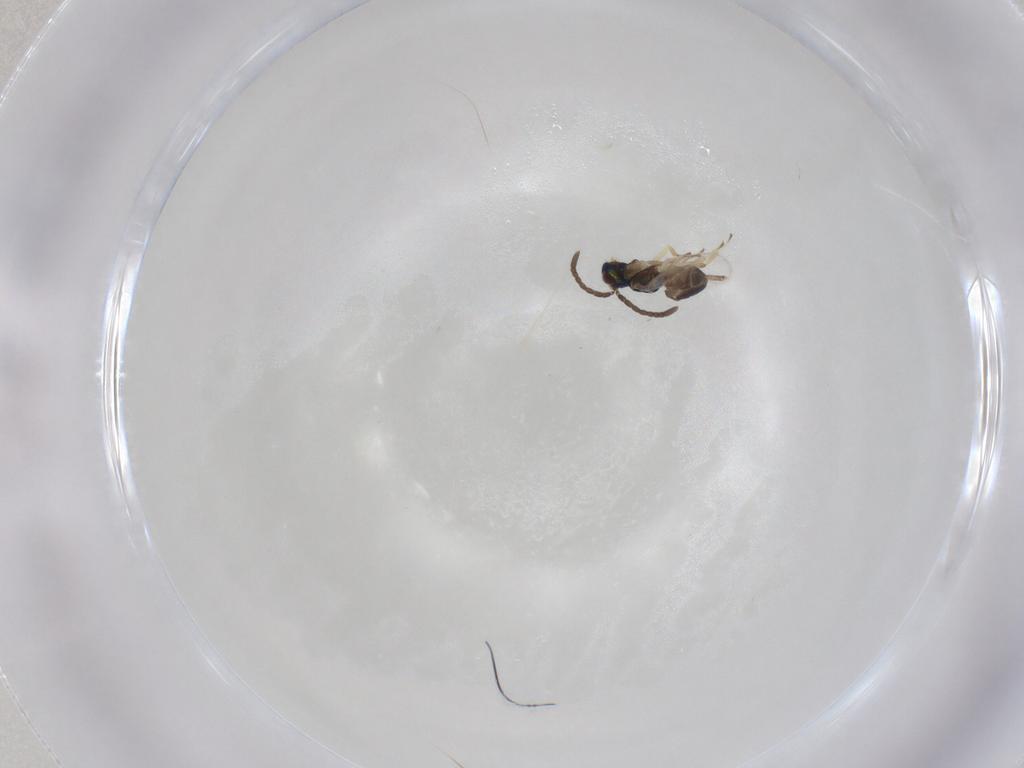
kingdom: Animalia
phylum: Arthropoda
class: Insecta
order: Hymenoptera
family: Eupelmidae
